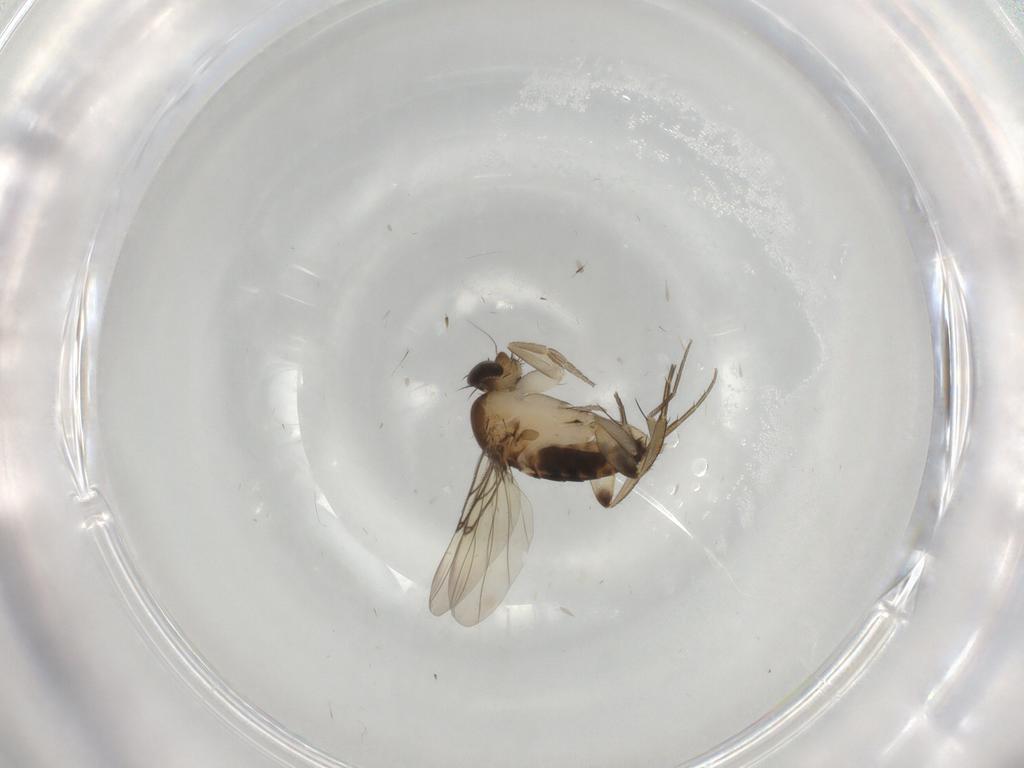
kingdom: Animalia
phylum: Arthropoda
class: Insecta
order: Diptera
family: Phoridae
